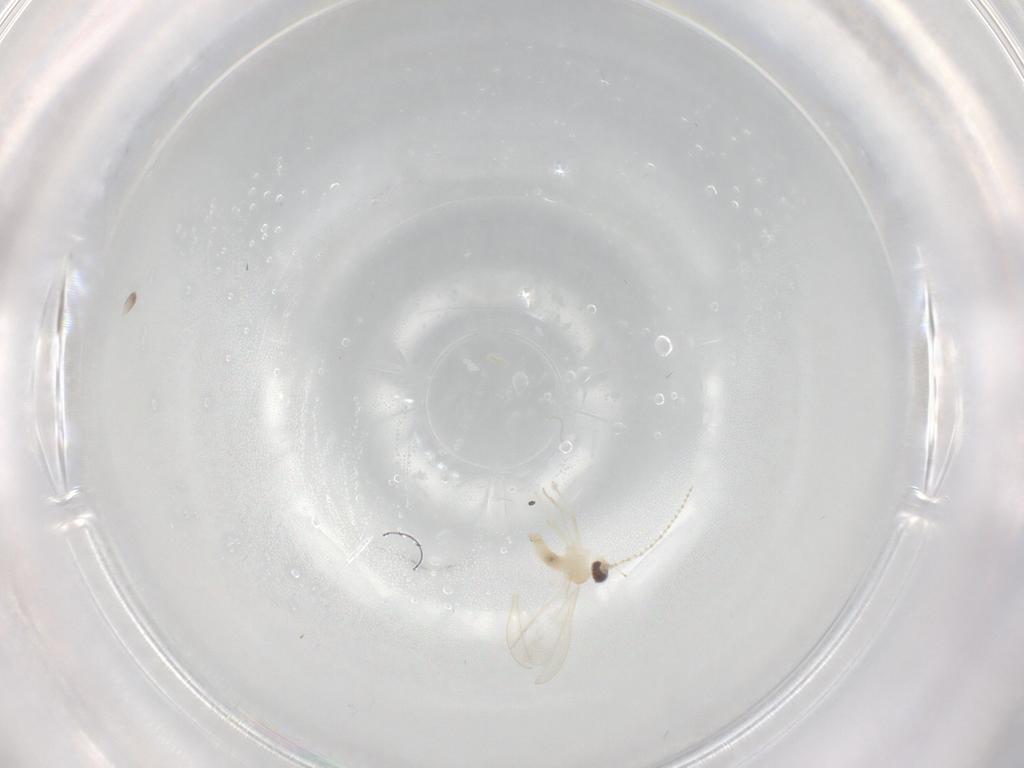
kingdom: Animalia
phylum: Arthropoda
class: Insecta
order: Diptera
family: Cecidomyiidae
